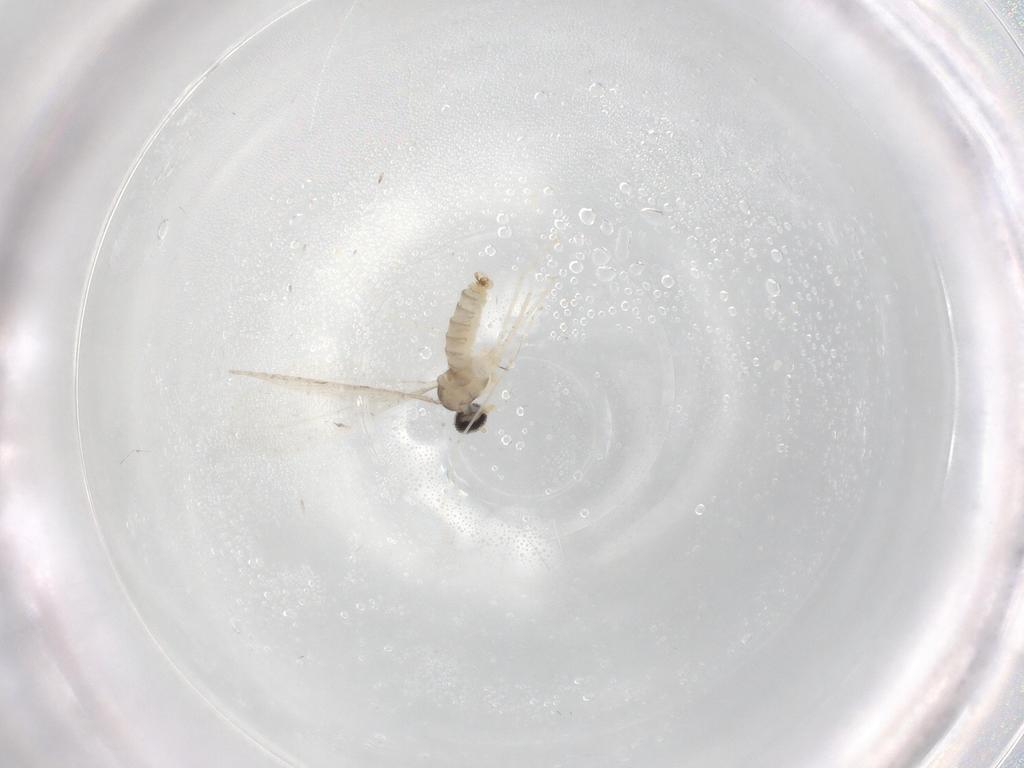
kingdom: Animalia
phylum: Arthropoda
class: Insecta
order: Diptera
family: Cecidomyiidae
